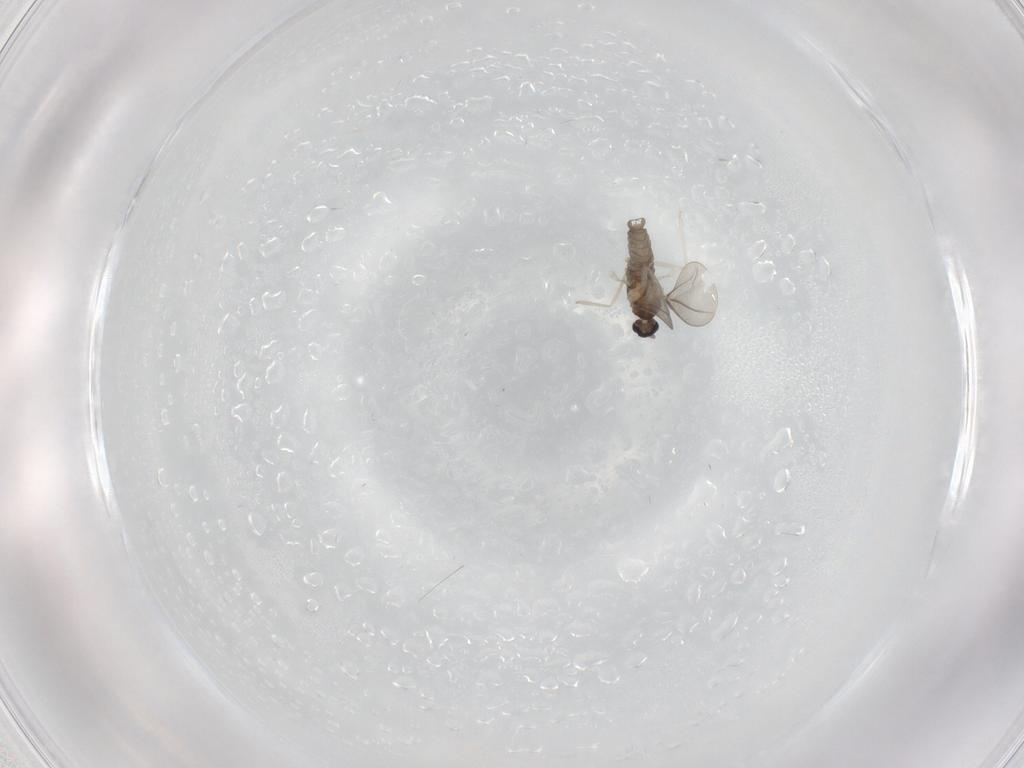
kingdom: Animalia
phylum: Arthropoda
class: Insecta
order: Diptera
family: Cecidomyiidae
